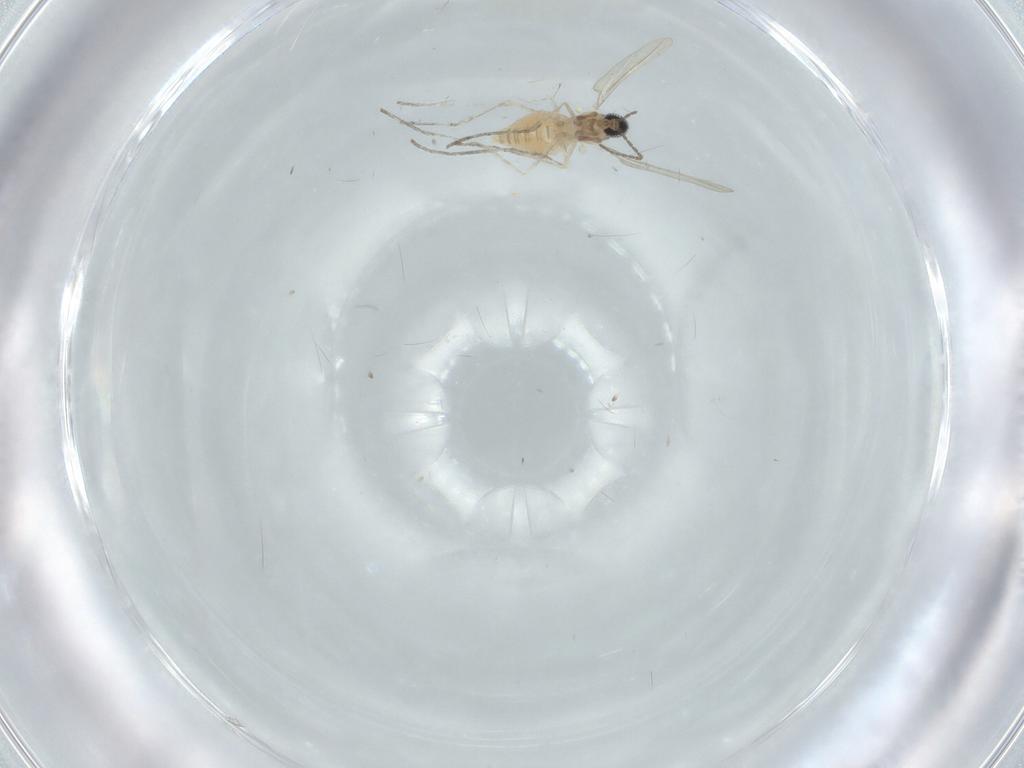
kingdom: Animalia
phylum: Arthropoda
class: Insecta
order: Diptera
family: Cecidomyiidae
